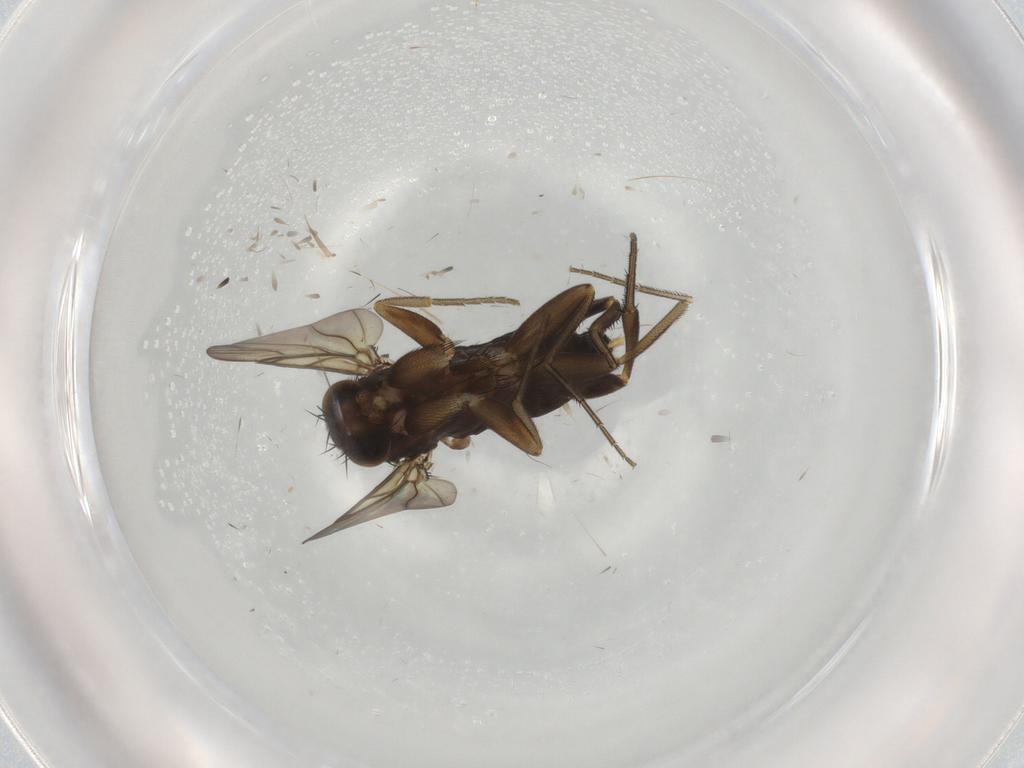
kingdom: Animalia
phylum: Arthropoda
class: Insecta
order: Diptera
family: Phoridae
